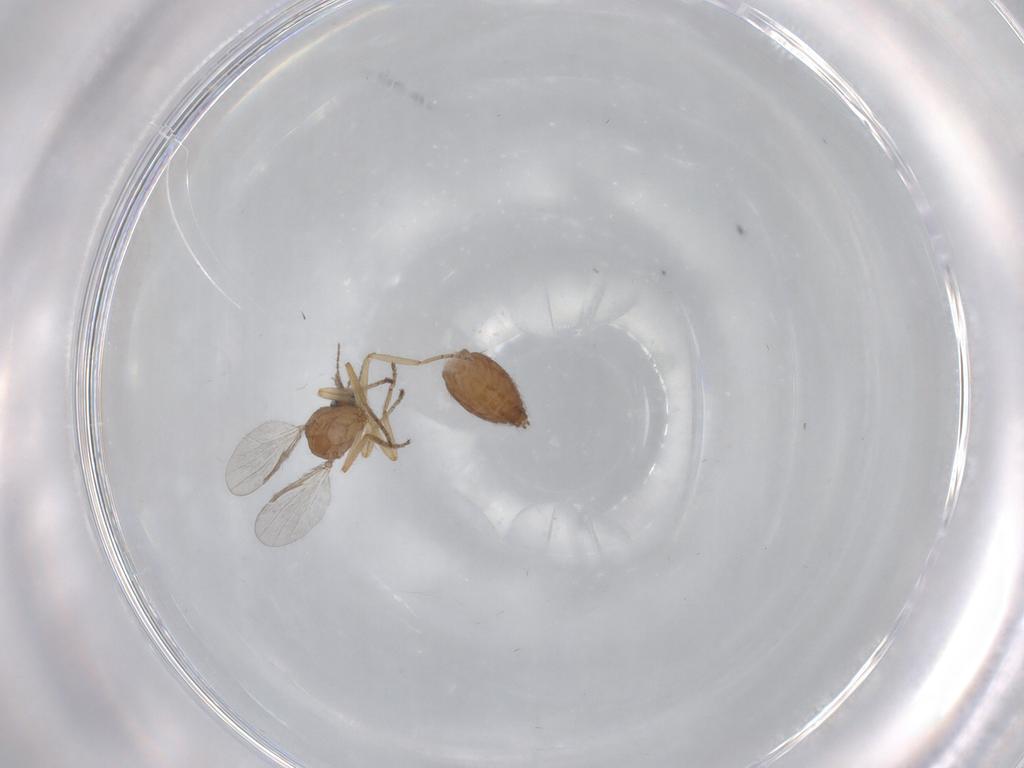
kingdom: Animalia
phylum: Arthropoda
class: Insecta
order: Diptera
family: Ceratopogonidae
